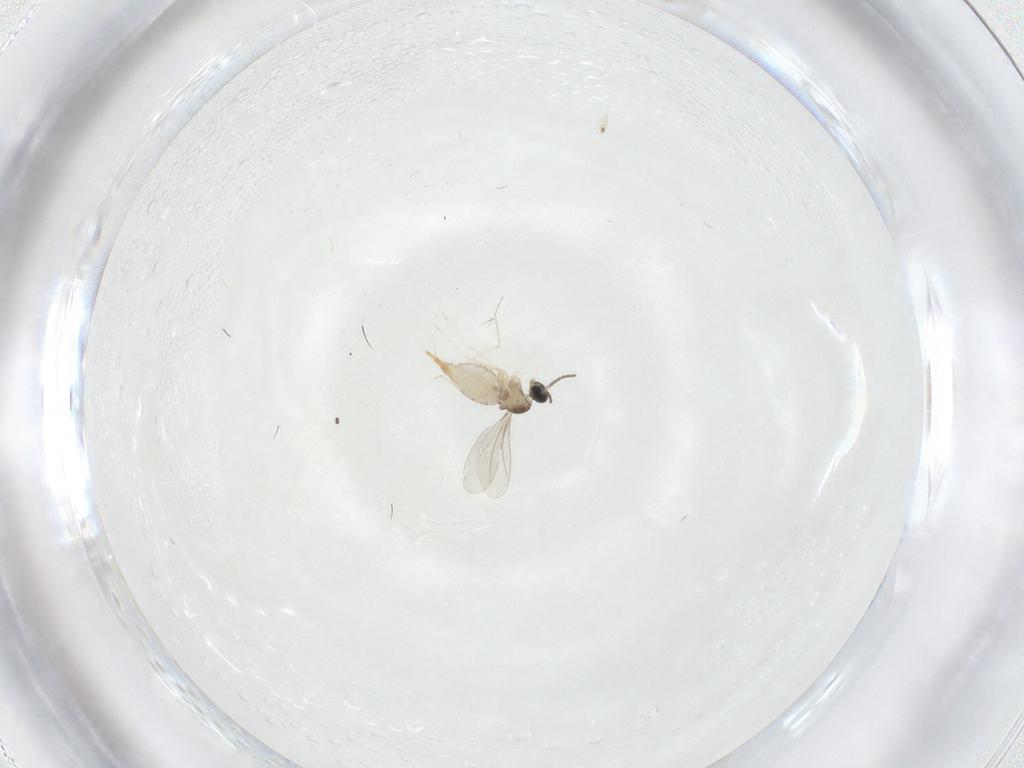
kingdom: Animalia
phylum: Arthropoda
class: Insecta
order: Diptera
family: Cecidomyiidae
